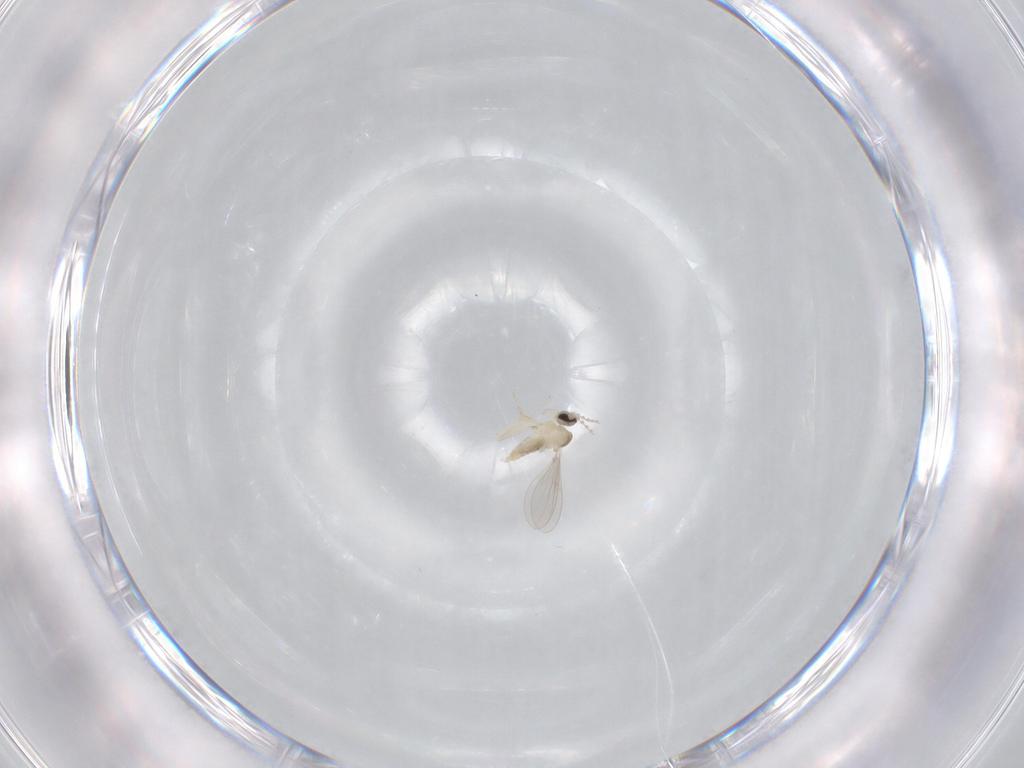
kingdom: Animalia
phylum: Arthropoda
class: Insecta
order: Diptera
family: Cecidomyiidae
